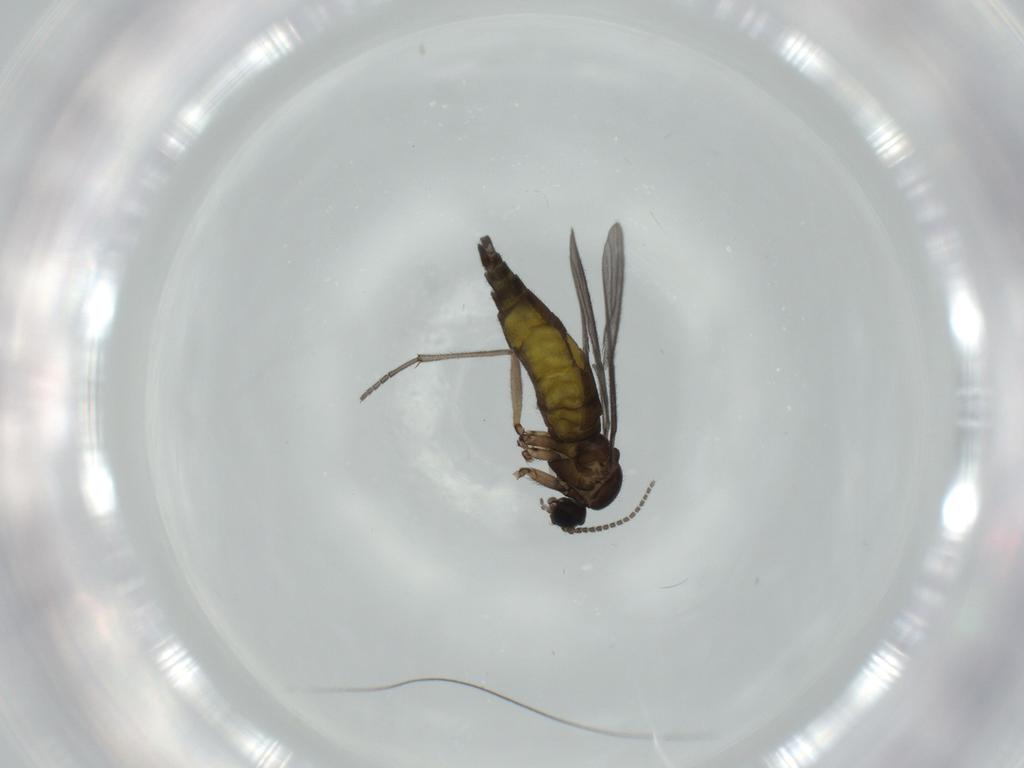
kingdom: Animalia
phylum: Arthropoda
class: Insecta
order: Diptera
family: Sciaridae
